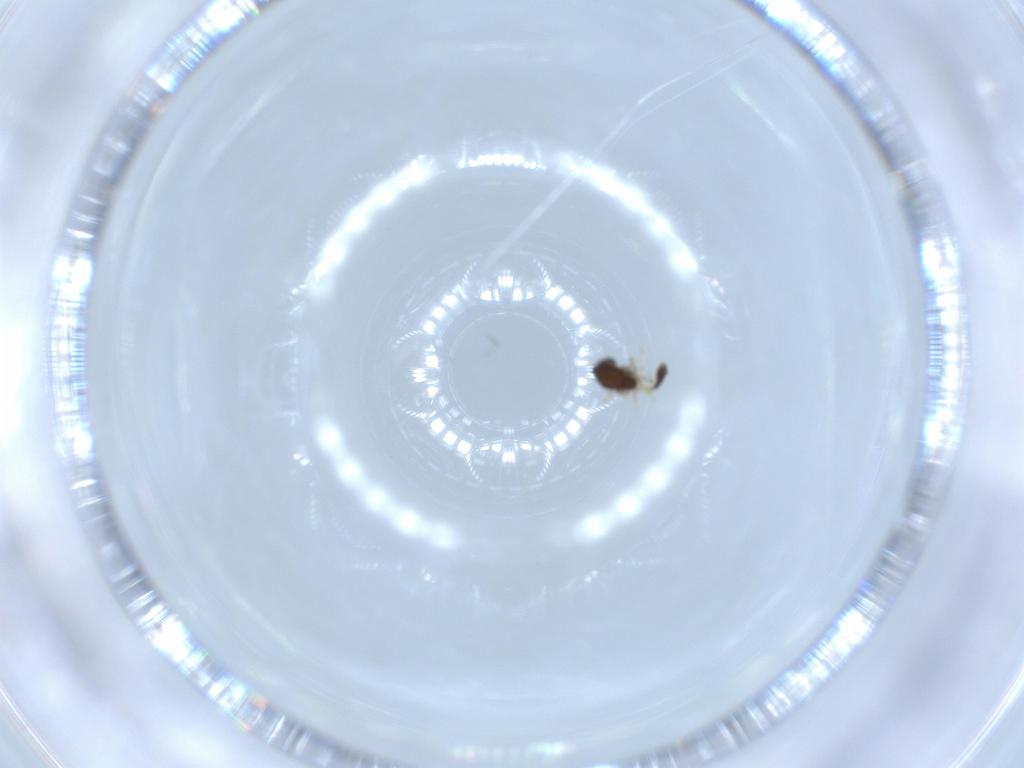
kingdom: Animalia
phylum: Arthropoda
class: Insecta
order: Diptera
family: Chironomidae
